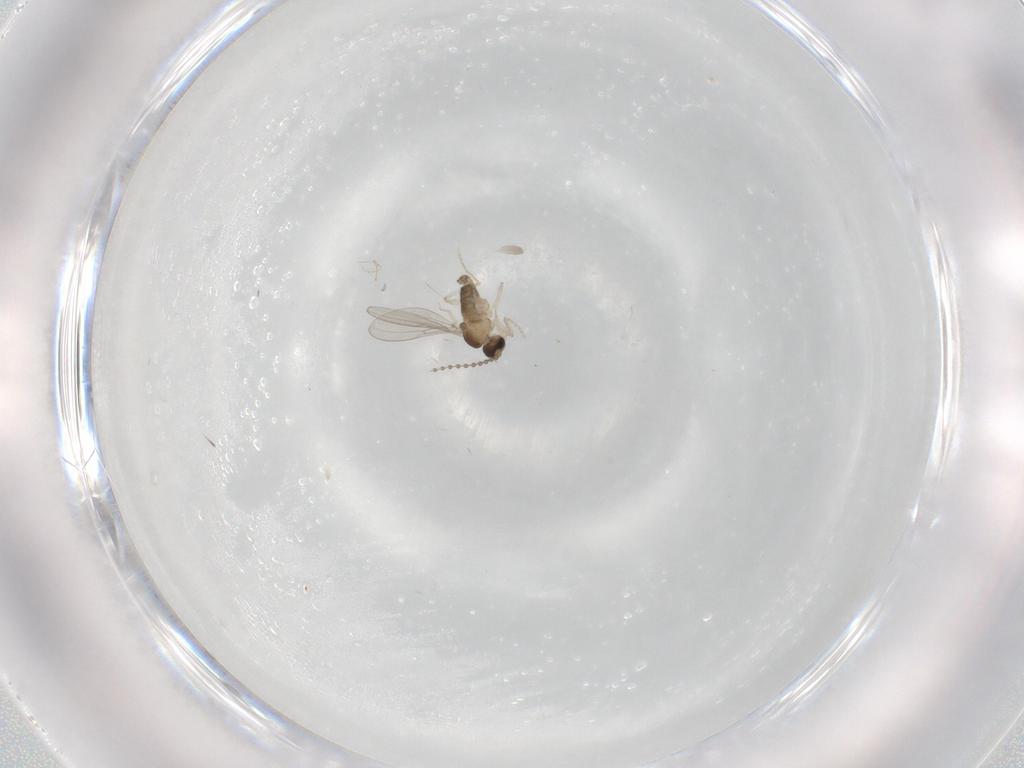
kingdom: Animalia
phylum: Arthropoda
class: Insecta
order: Diptera
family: Cecidomyiidae
